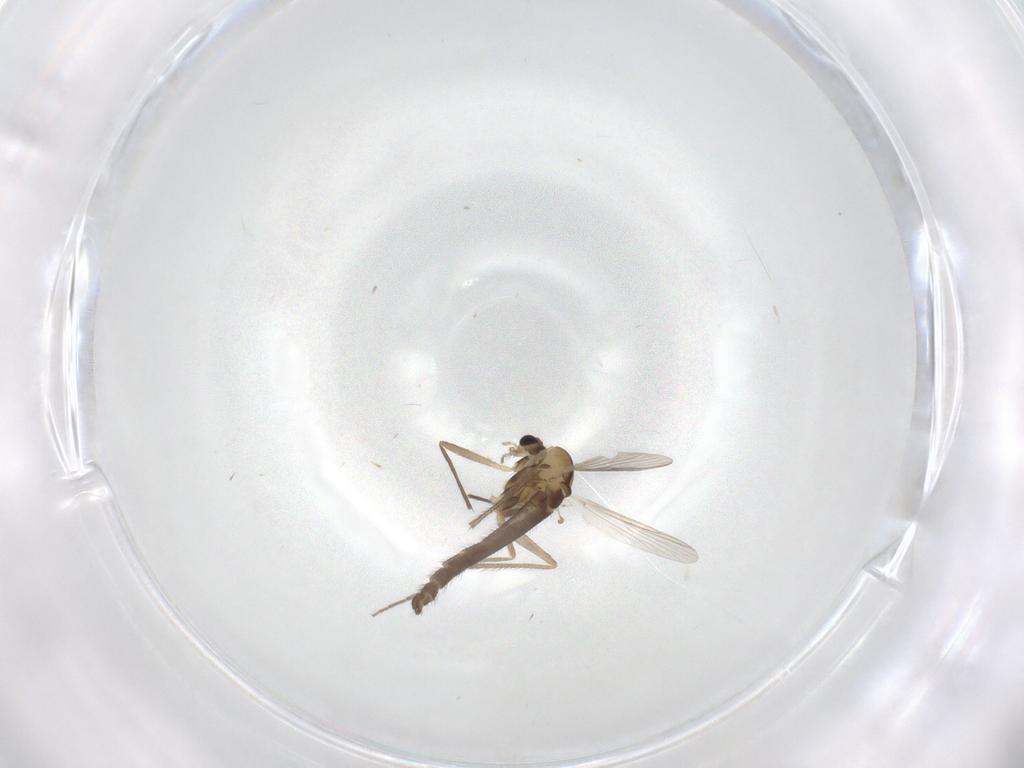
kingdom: Animalia
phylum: Arthropoda
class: Insecta
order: Diptera
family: Chironomidae
